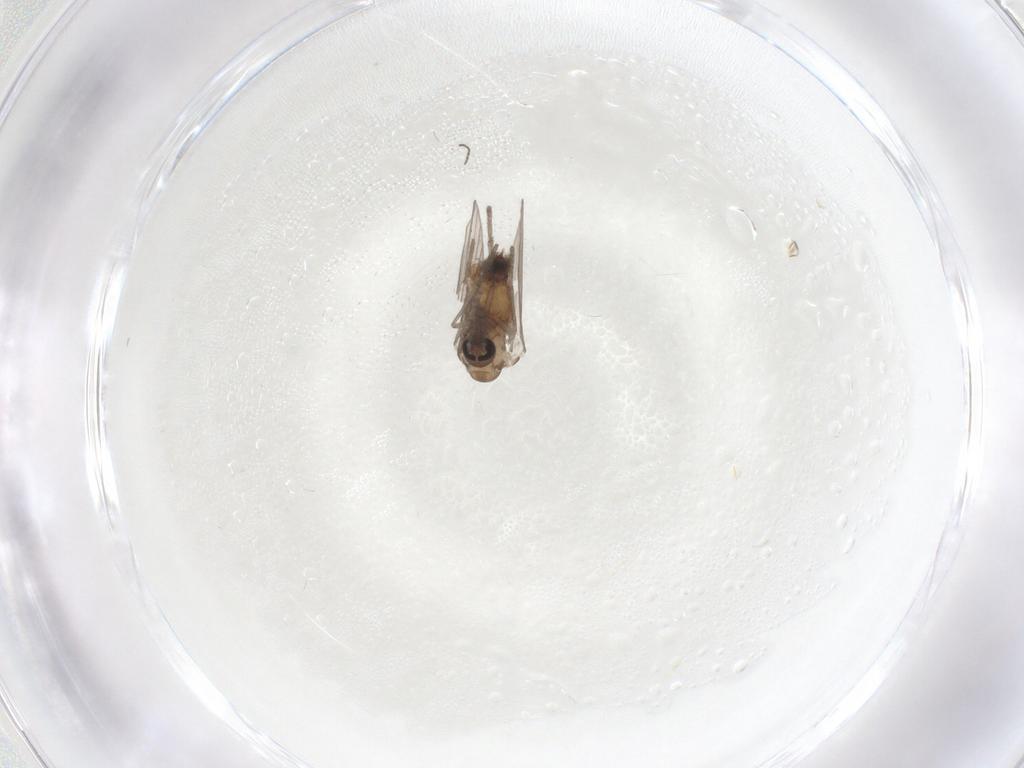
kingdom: Animalia
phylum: Arthropoda
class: Insecta
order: Diptera
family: Psychodidae
